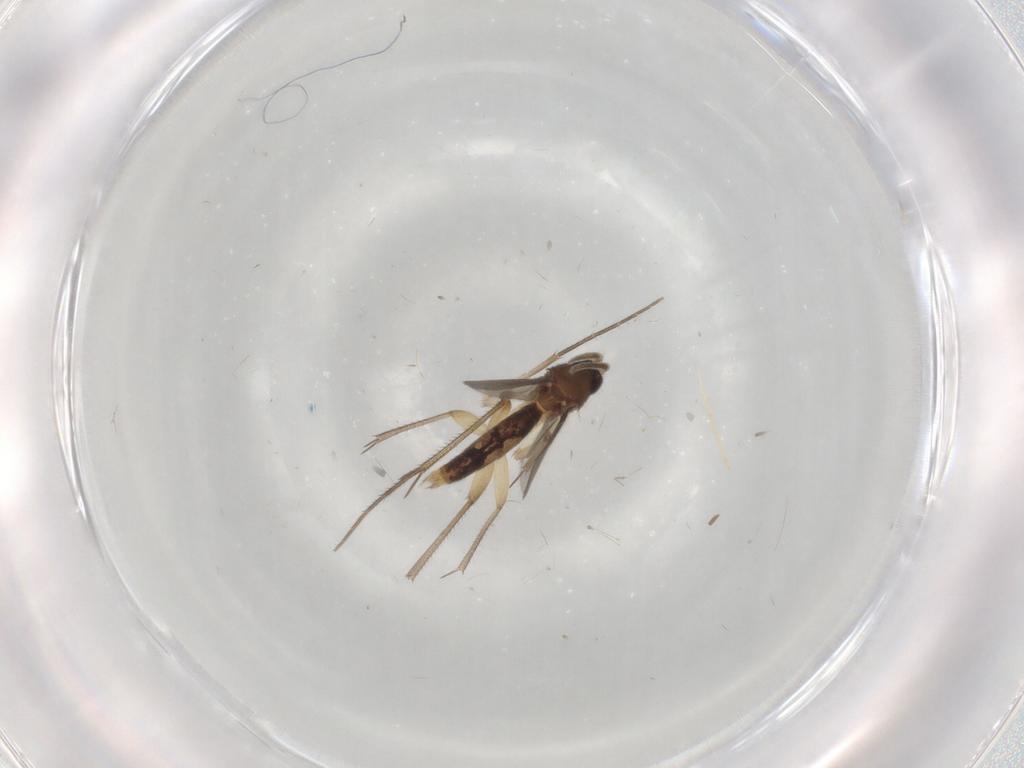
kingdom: Animalia
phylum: Arthropoda
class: Insecta
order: Diptera
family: Mycetophilidae
